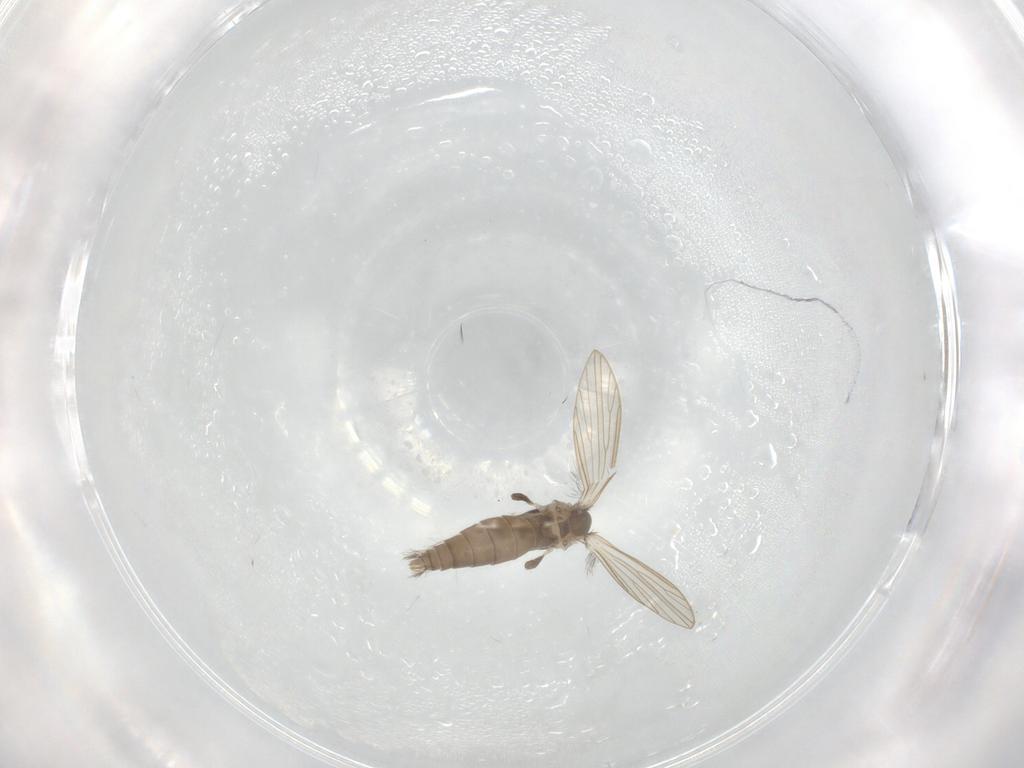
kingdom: Animalia
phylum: Arthropoda
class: Insecta
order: Diptera
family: Psychodidae
